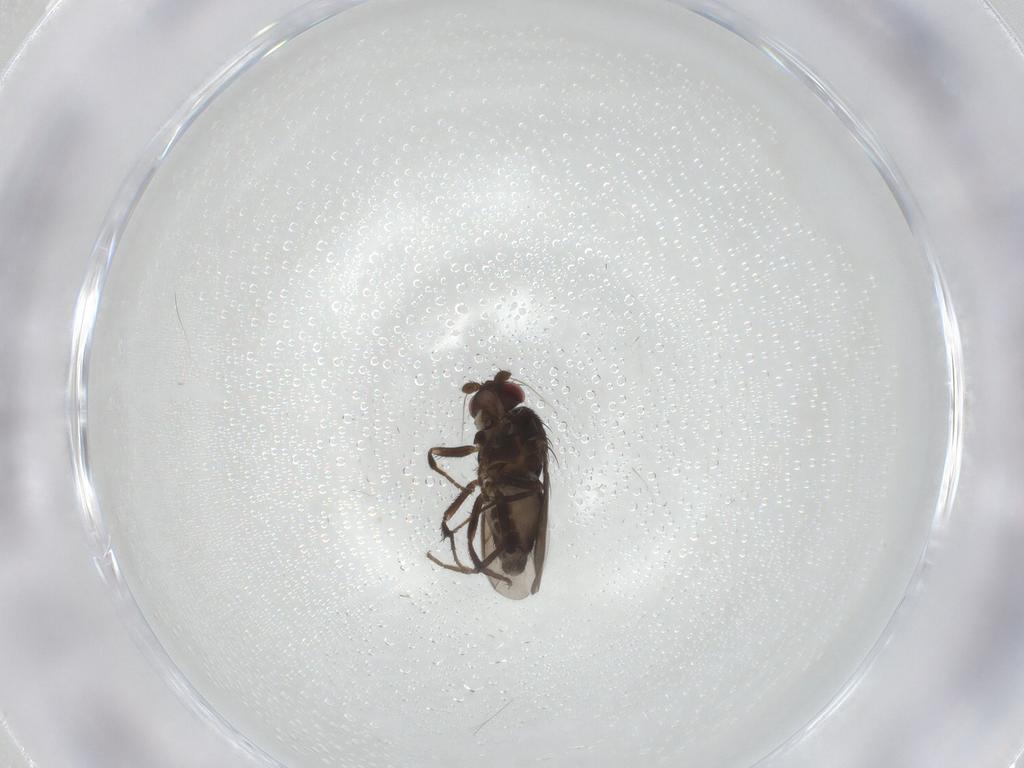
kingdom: Animalia
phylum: Arthropoda
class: Insecta
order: Diptera
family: Sphaeroceridae
